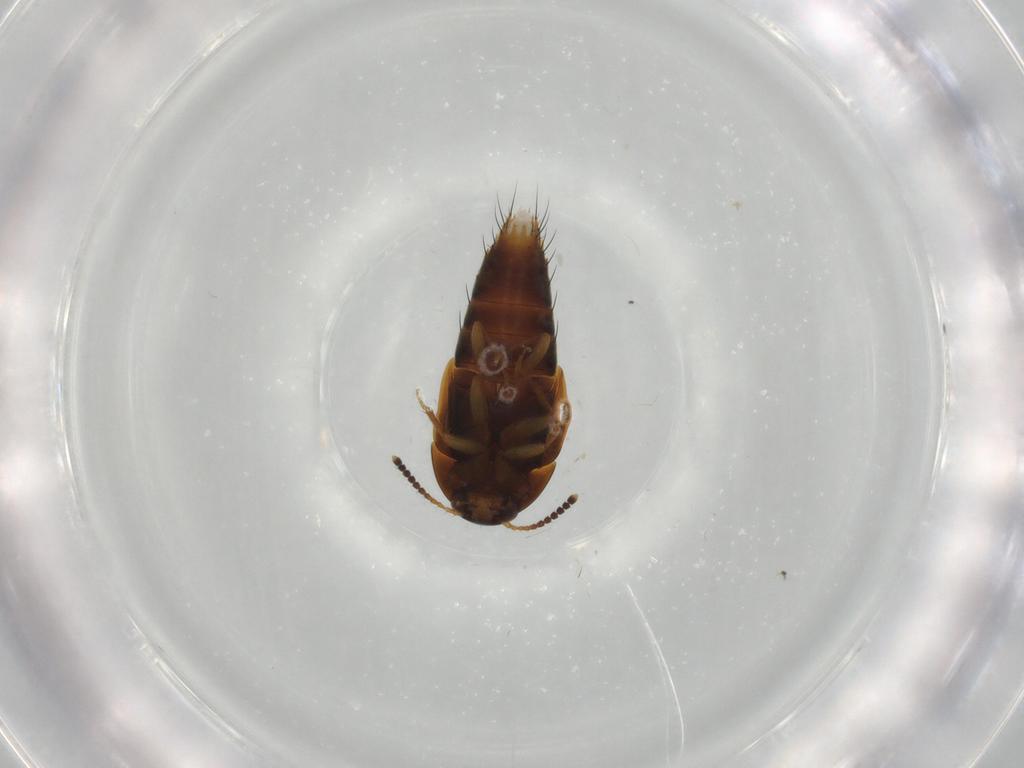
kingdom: Animalia
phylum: Arthropoda
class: Insecta
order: Coleoptera
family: Staphylinidae
